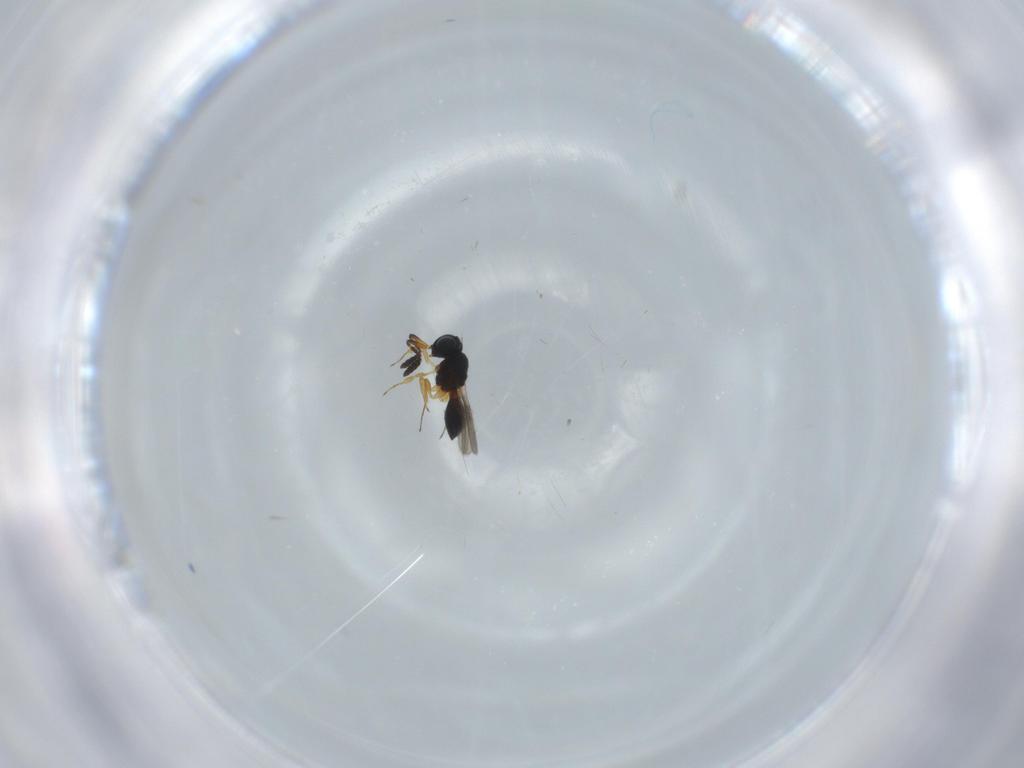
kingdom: Animalia
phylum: Arthropoda
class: Insecta
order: Hymenoptera
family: Scelionidae
